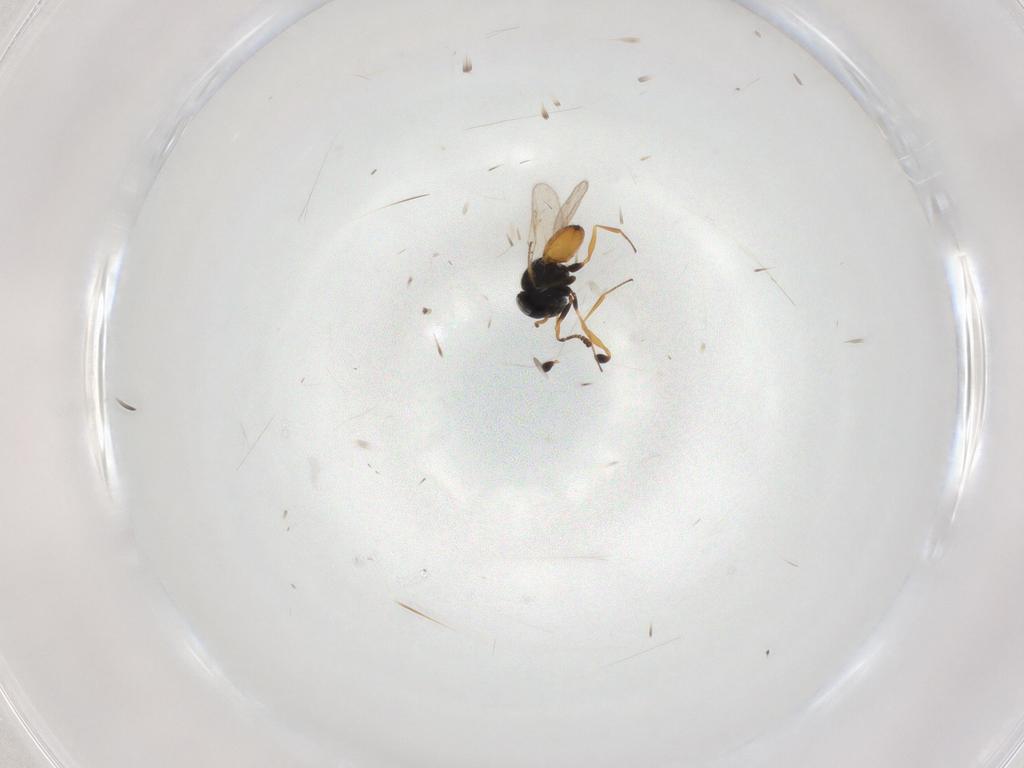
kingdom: Animalia
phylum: Arthropoda
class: Insecta
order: Hymenoptera
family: Scelionidae
